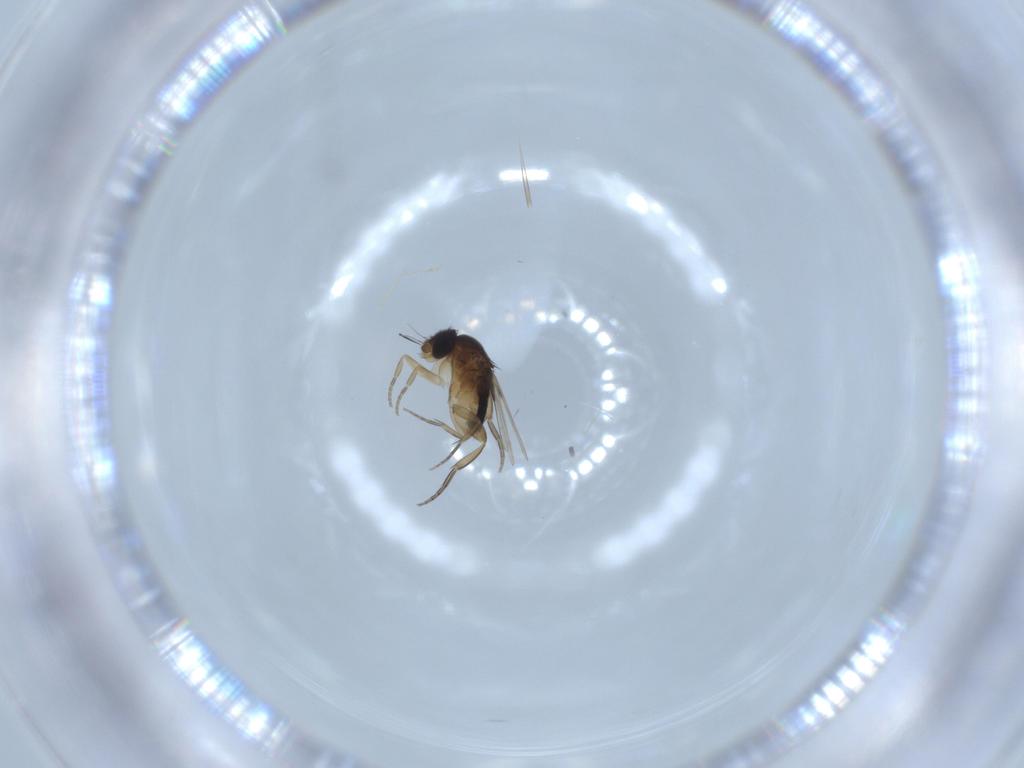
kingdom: Animalia
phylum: Arthropoda
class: Insecta
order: Diptera
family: Phoridae
